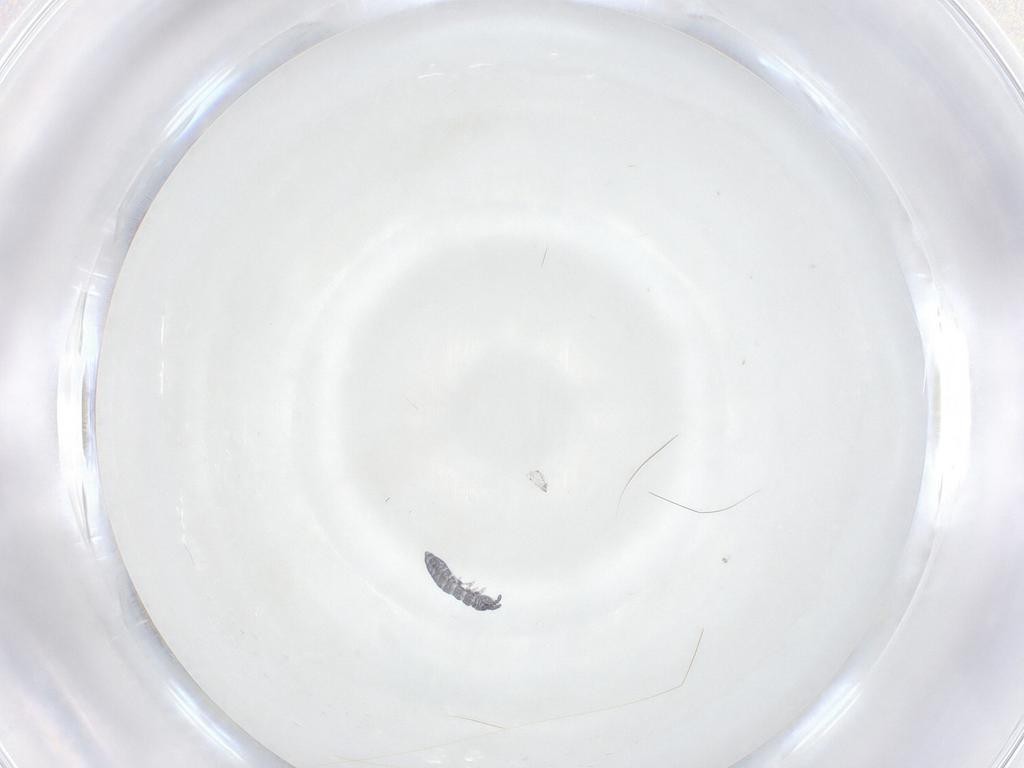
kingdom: Animalia
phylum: Arthropoda
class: Collembola
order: Poduromorpha
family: Hypogastruridae
